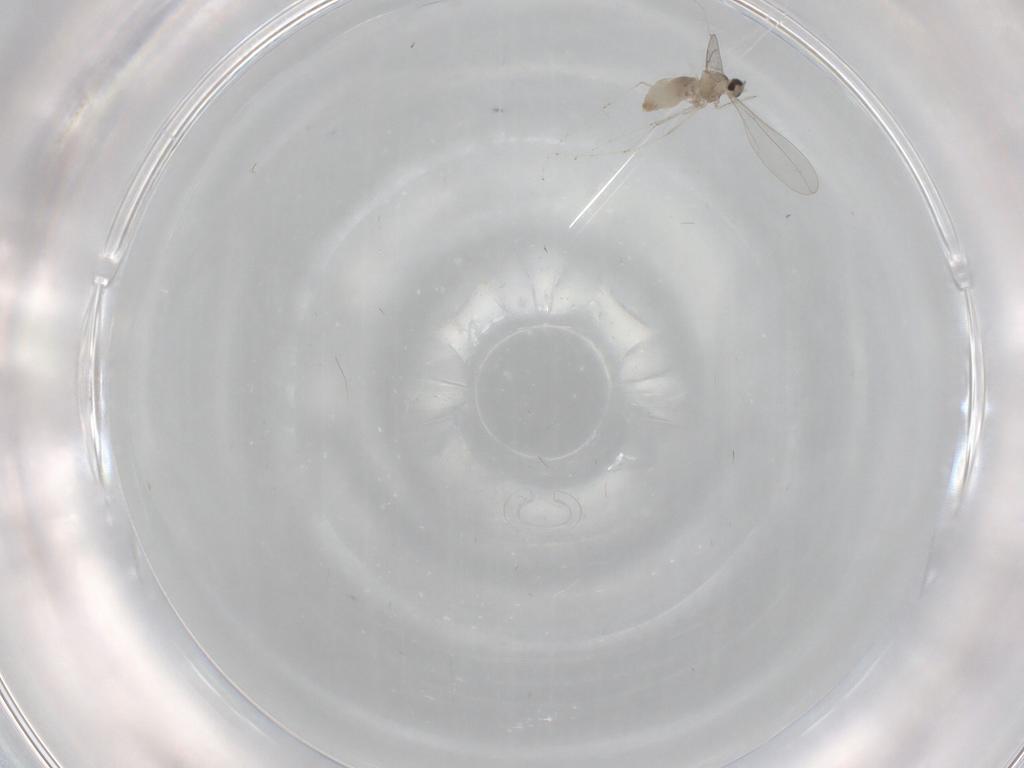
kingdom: Animalia
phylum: Arthropoda
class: Insecta
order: Diptera
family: Cecidomyiidae
